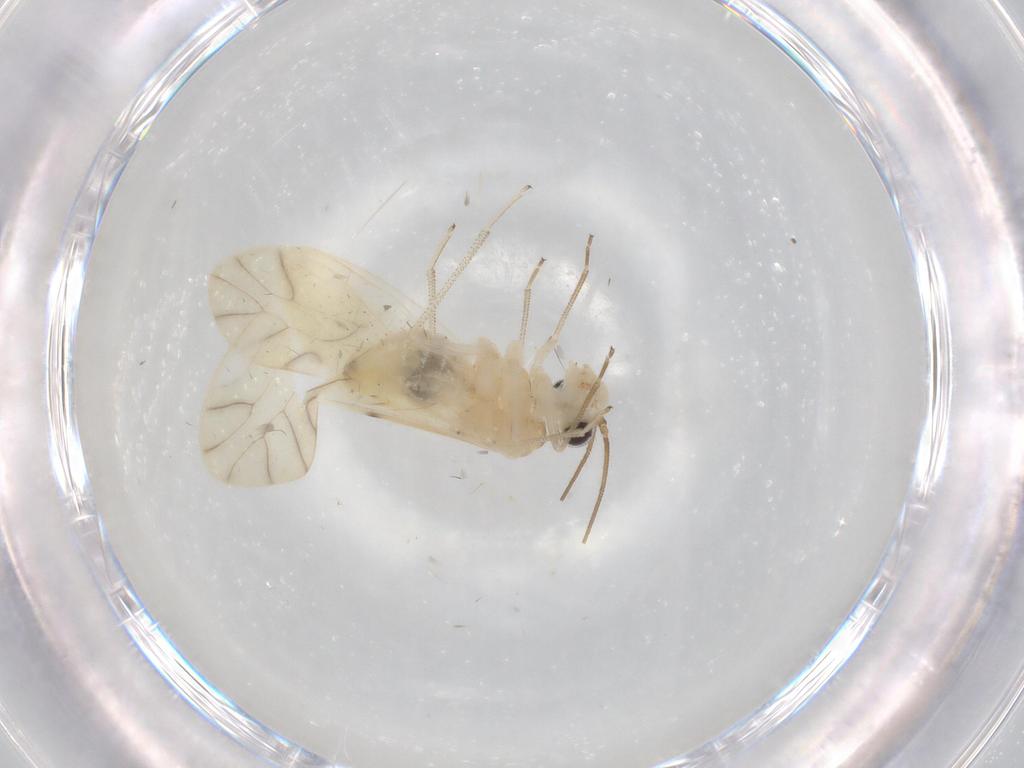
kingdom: Animalia
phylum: Arthropoda
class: Insecta
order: Psocodea
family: Caeciliusidae
